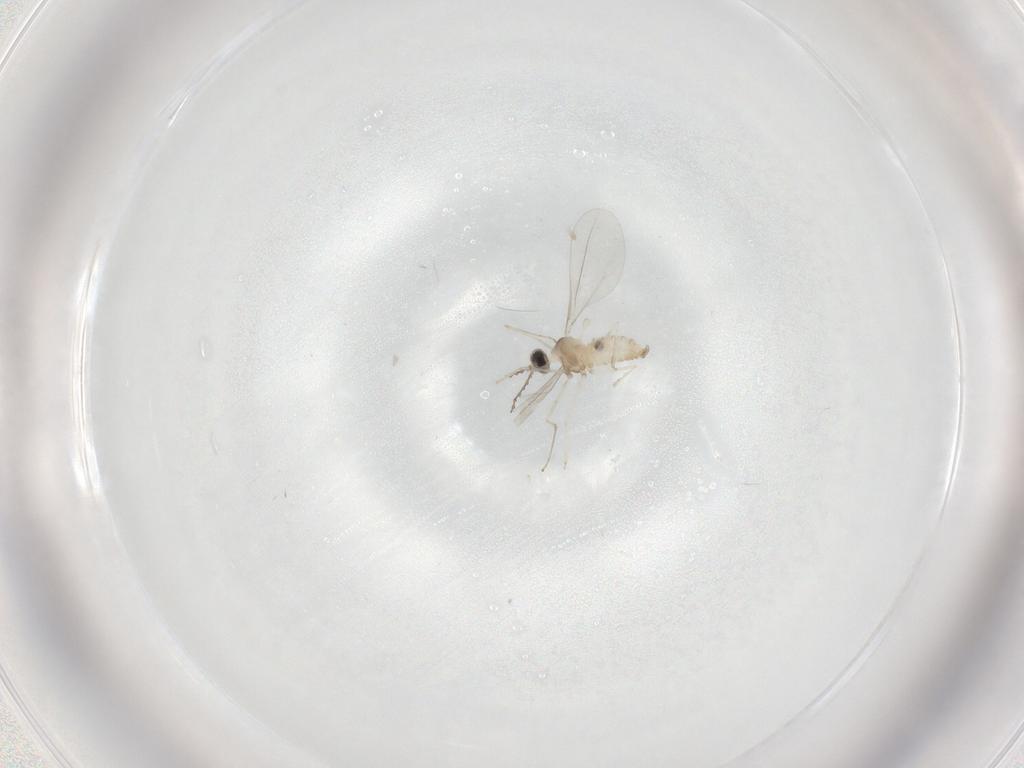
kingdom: Animalia
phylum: Arthropoda
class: Insecta
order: Diptera
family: Cecidomyiidae
